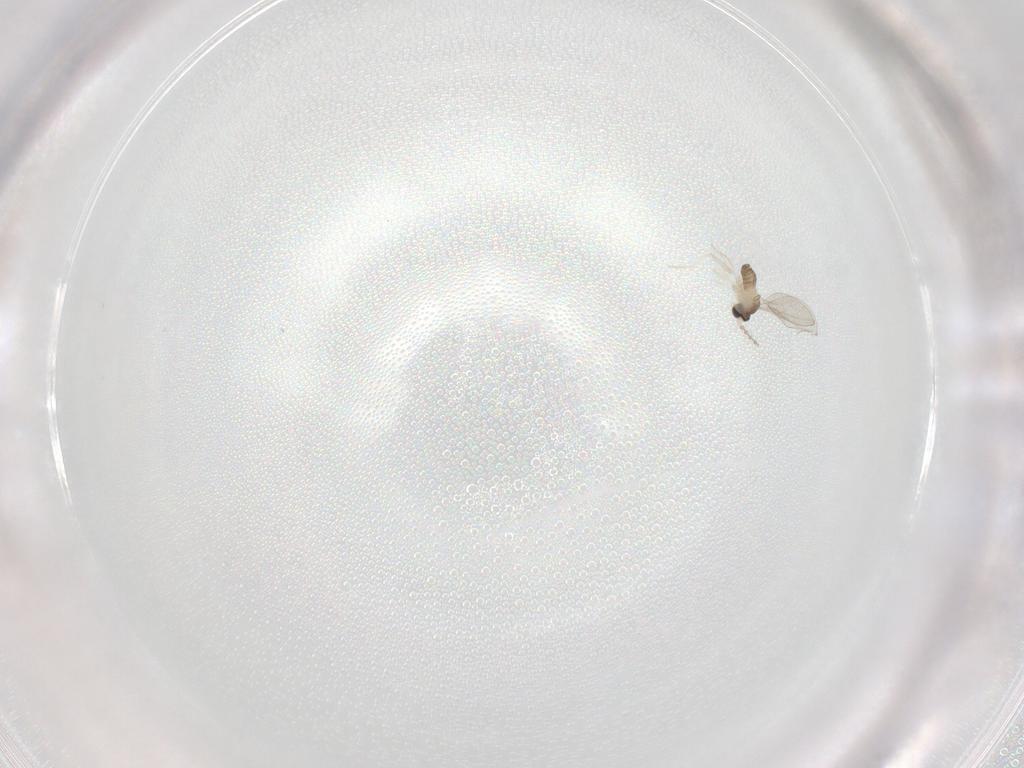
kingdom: Animalia
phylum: Arthropoda
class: Insecta
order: Diptera
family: Cecidomyiidae
